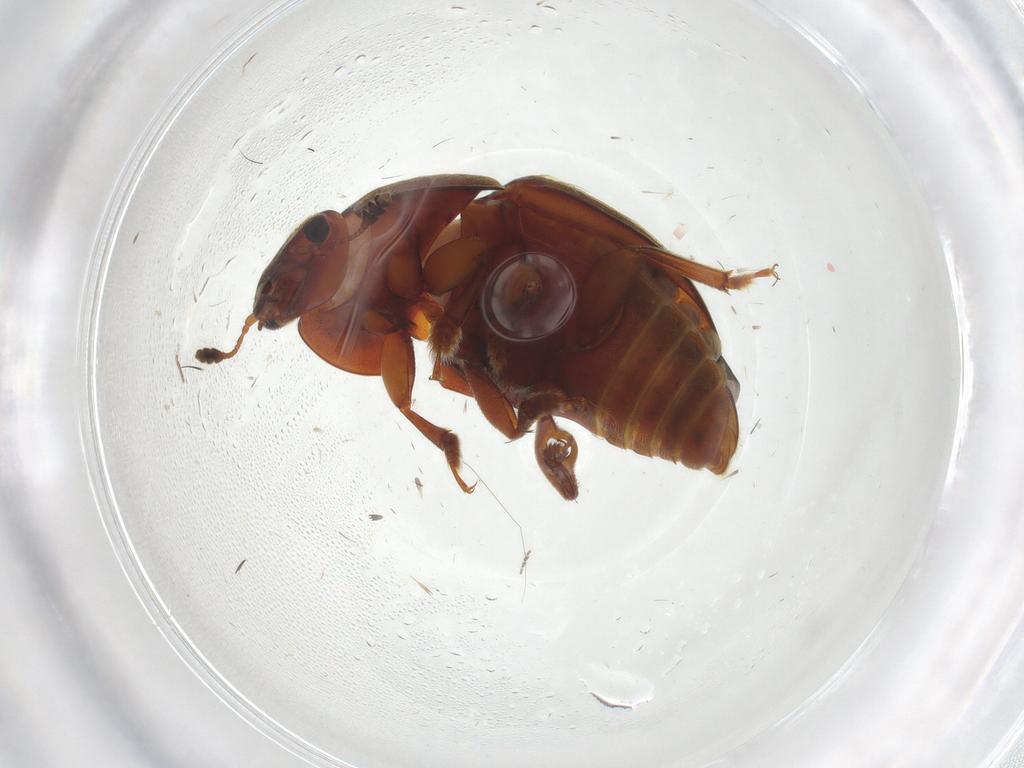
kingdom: Animalia
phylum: Arthropoda
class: Insecta
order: Coleoptera
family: Nitidulidae
